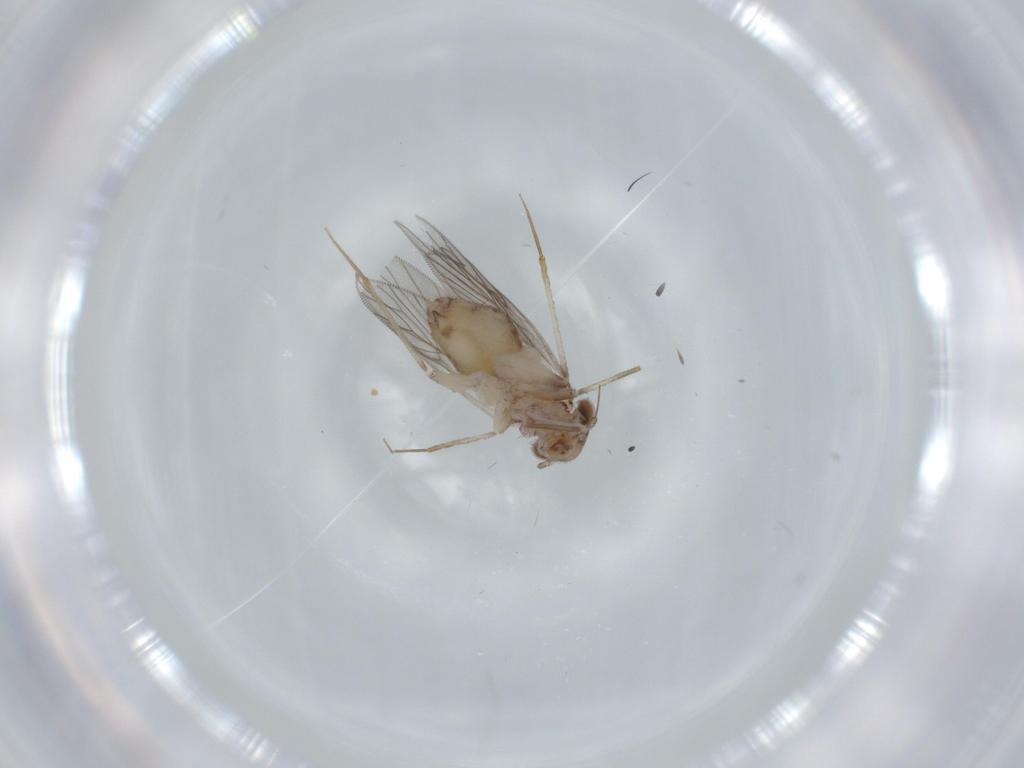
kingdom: Animalia
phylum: Arthropoda
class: Insecta
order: Psocodea
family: Lepidopsocidae
